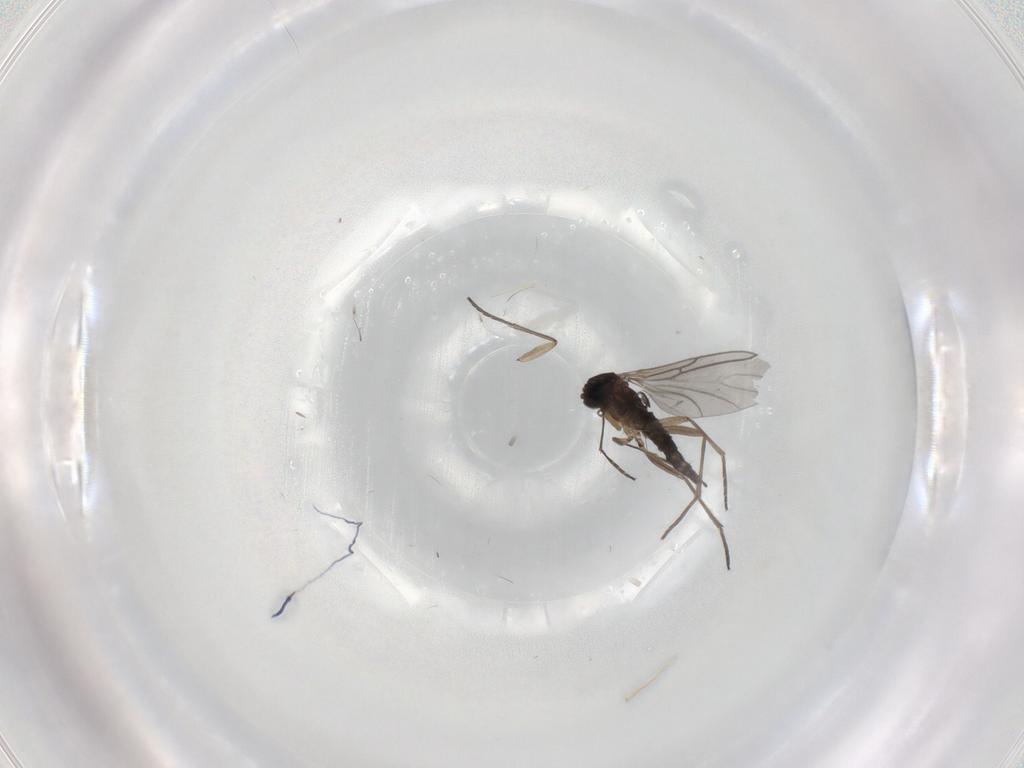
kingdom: Animalia
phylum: Arthropoda
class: Insecta
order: Diptera
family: Sciaridae
